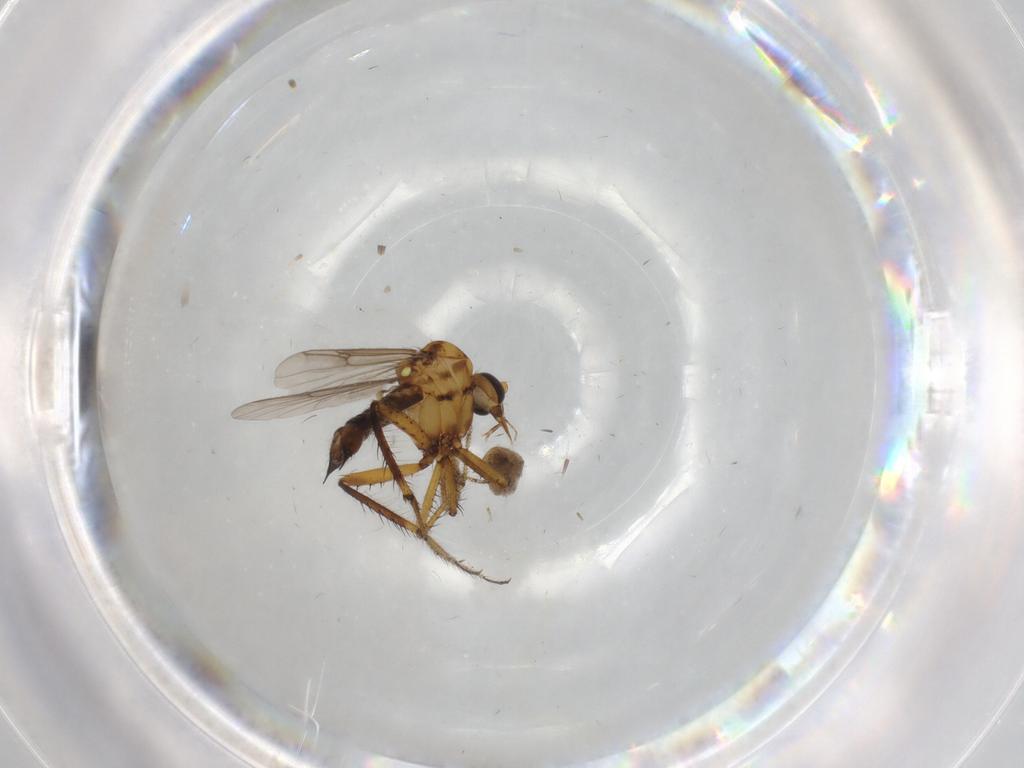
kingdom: Animalia
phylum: Arthropoda
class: Insecta
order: Diptera
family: Ceratopogonidae
